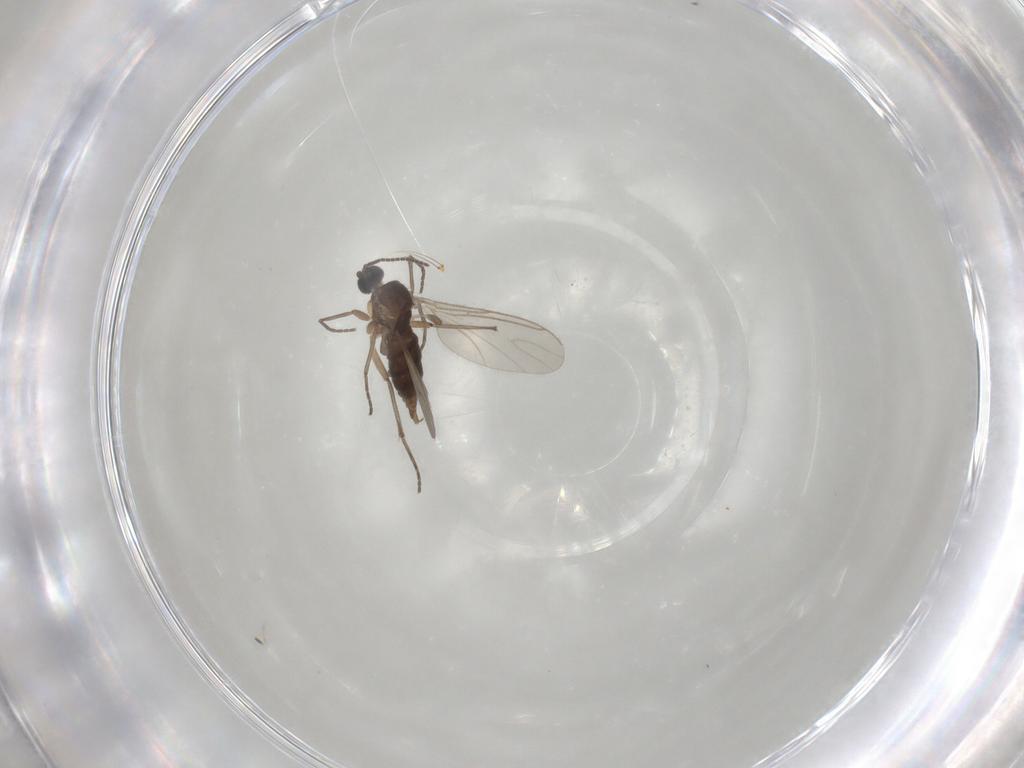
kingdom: Animalia
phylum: Arthropoda
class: Insecta
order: Diptera
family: Sciaridae
